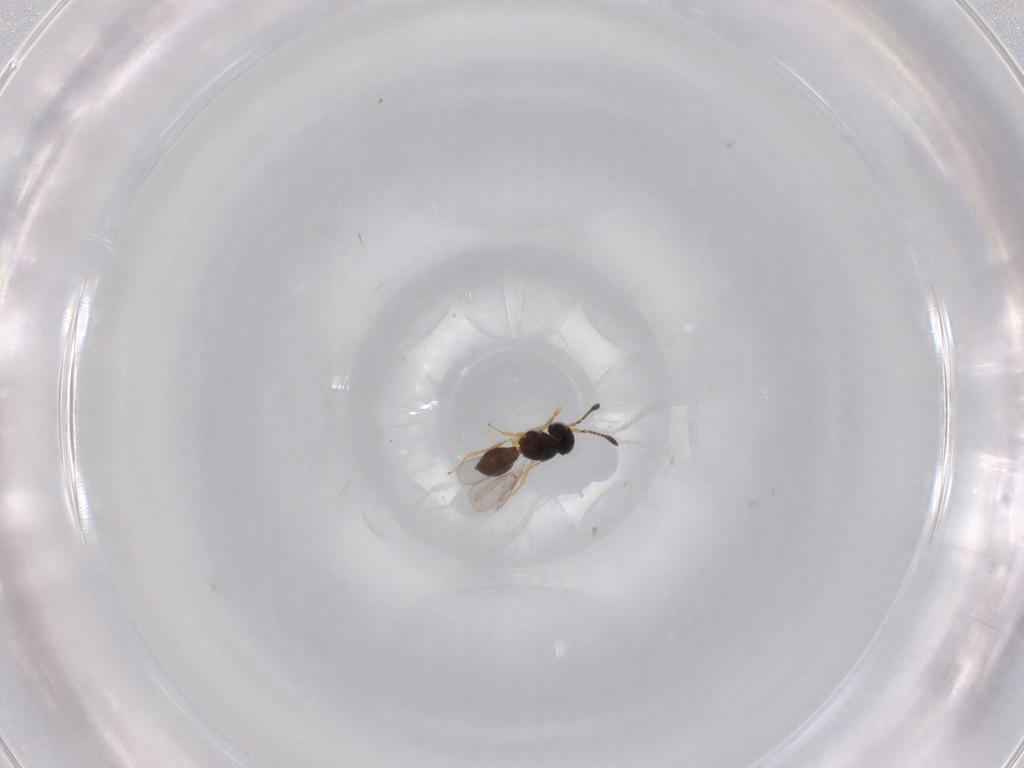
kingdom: Animalia
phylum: Arthropoda
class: Insecta
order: Hymenoptera
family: Scelionidae
